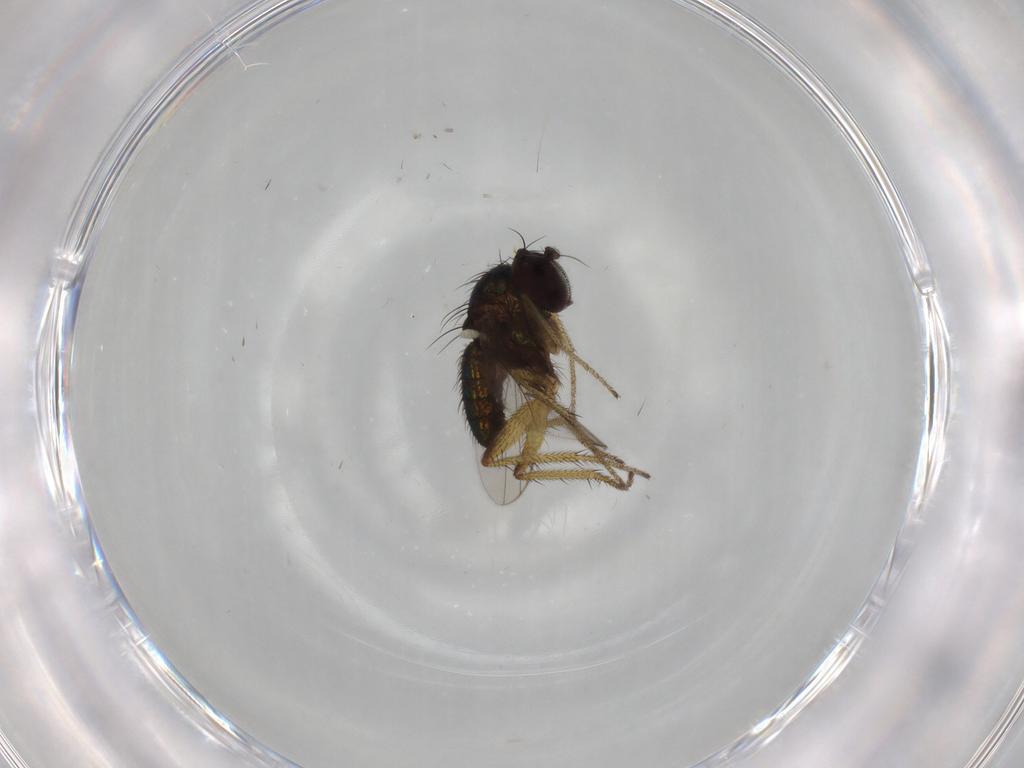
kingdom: Animalia
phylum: Arthropoda
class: Insecta
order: Diptera
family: Dolichopodidae
